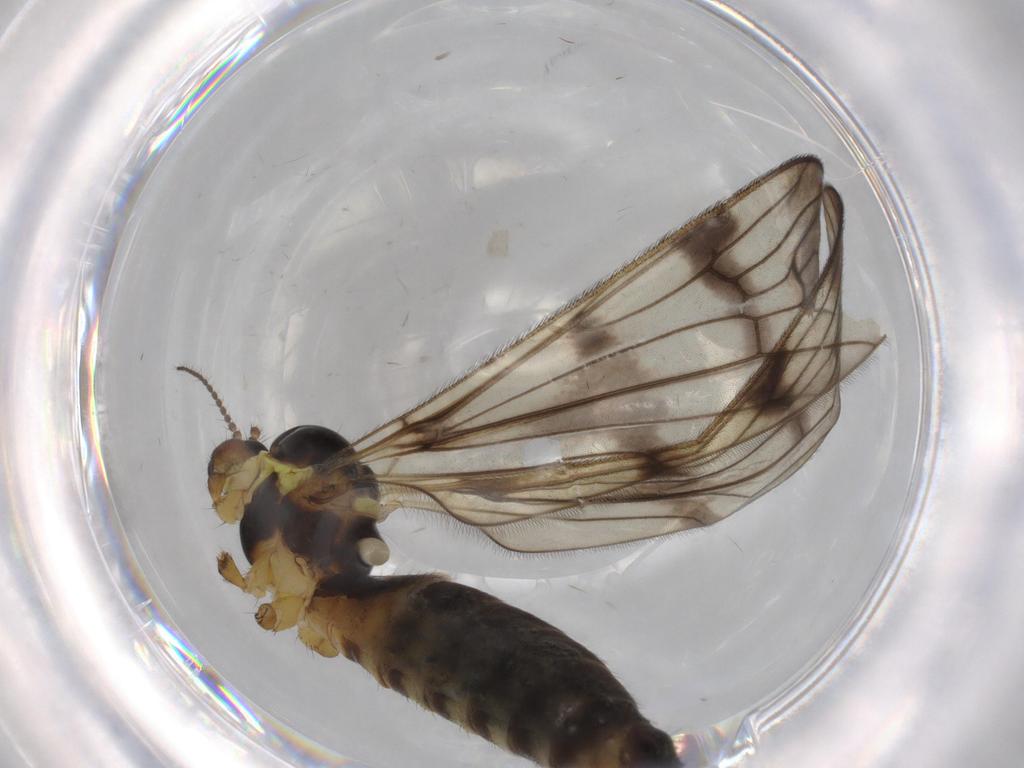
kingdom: Animalia
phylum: Arthropoda
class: Insecta
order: Diptera
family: Limoniidae
